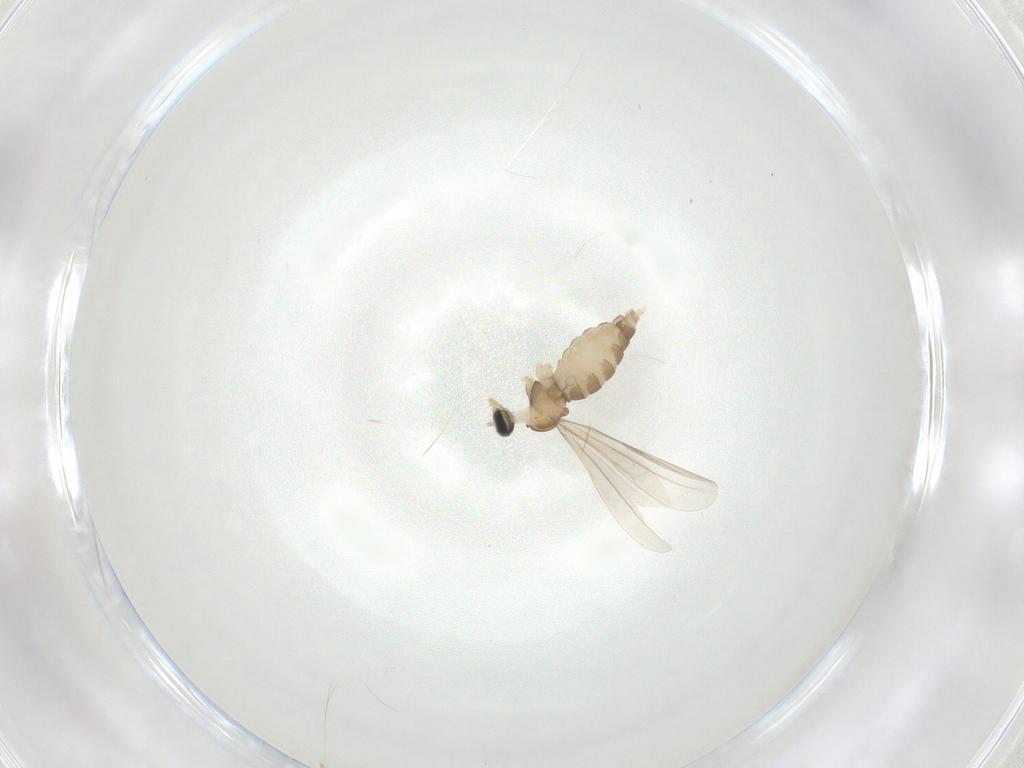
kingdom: Animalia
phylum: Arthropoda
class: Insecta
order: Diptera
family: Cecidomyiidae
